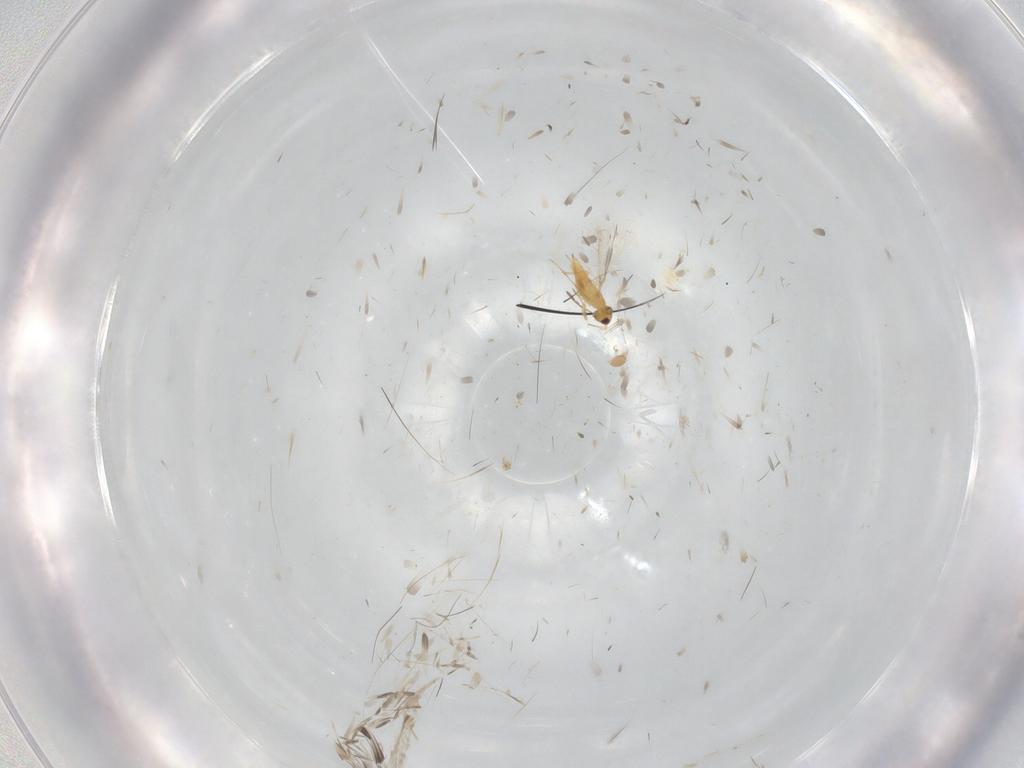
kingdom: Animalia
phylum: Arthropoda
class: Insecta
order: Hymenoptera
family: Mymaridae
